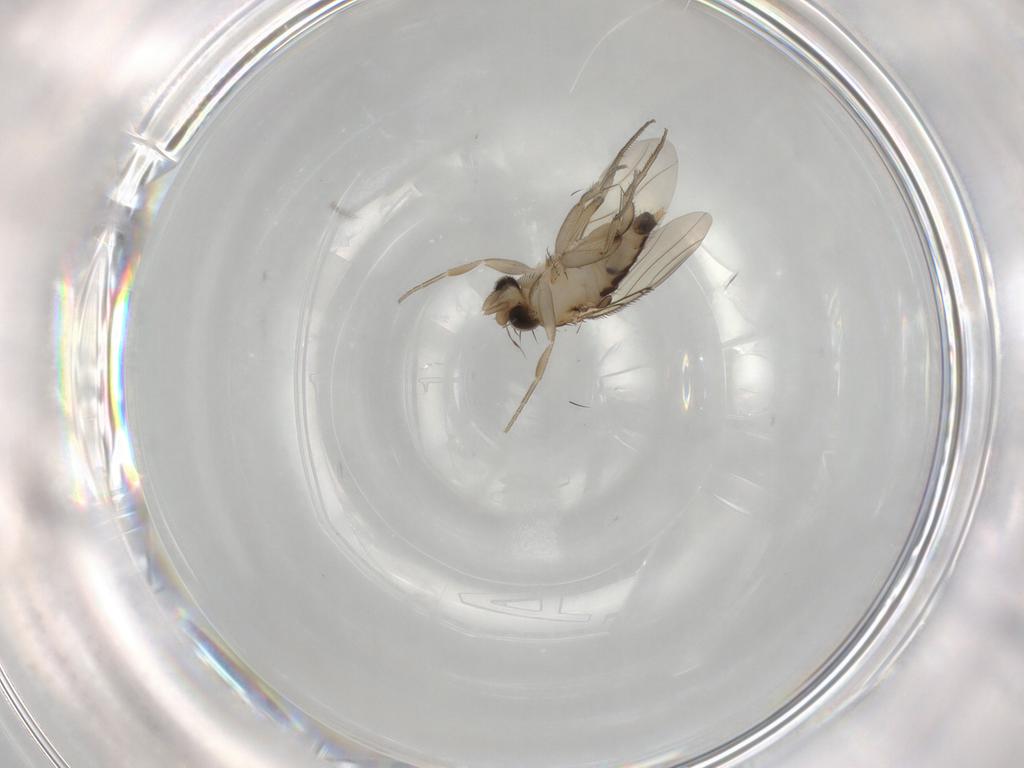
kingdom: Animalia
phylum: Arthropoda
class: Insecta
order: Diptera
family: Phoridae
